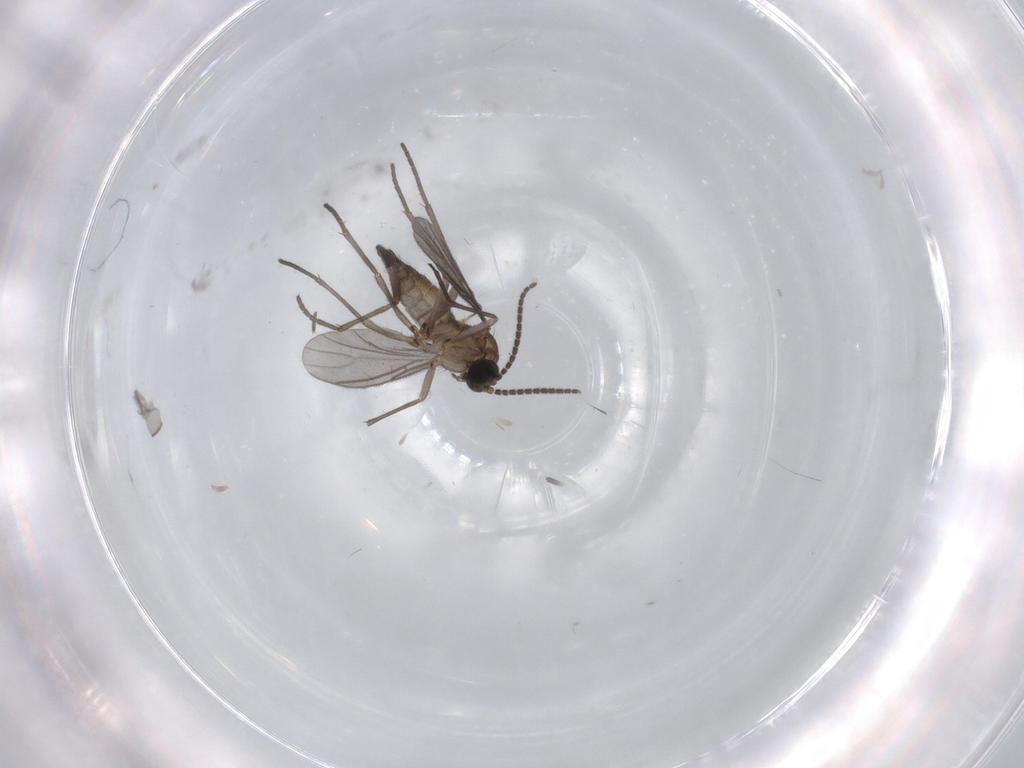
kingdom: Animalia
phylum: Arthropoda
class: Insecta
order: Diptera
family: Sciaridae
